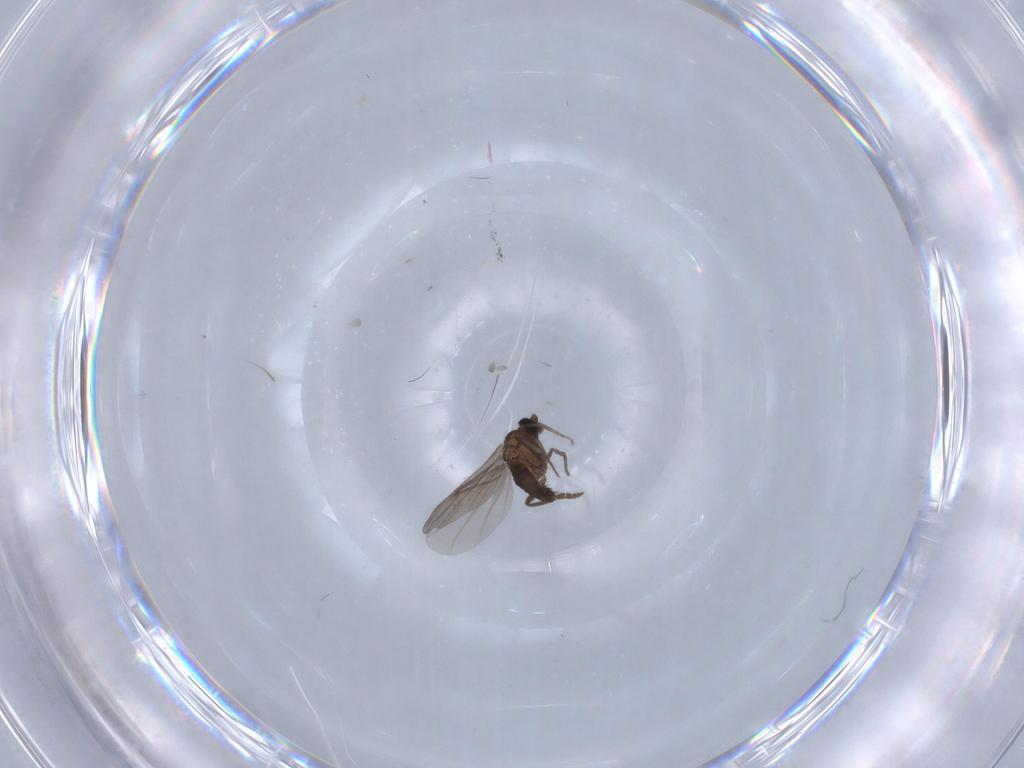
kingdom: Animalia
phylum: Arthropoda
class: Insecta
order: Diptera
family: Phoridae
